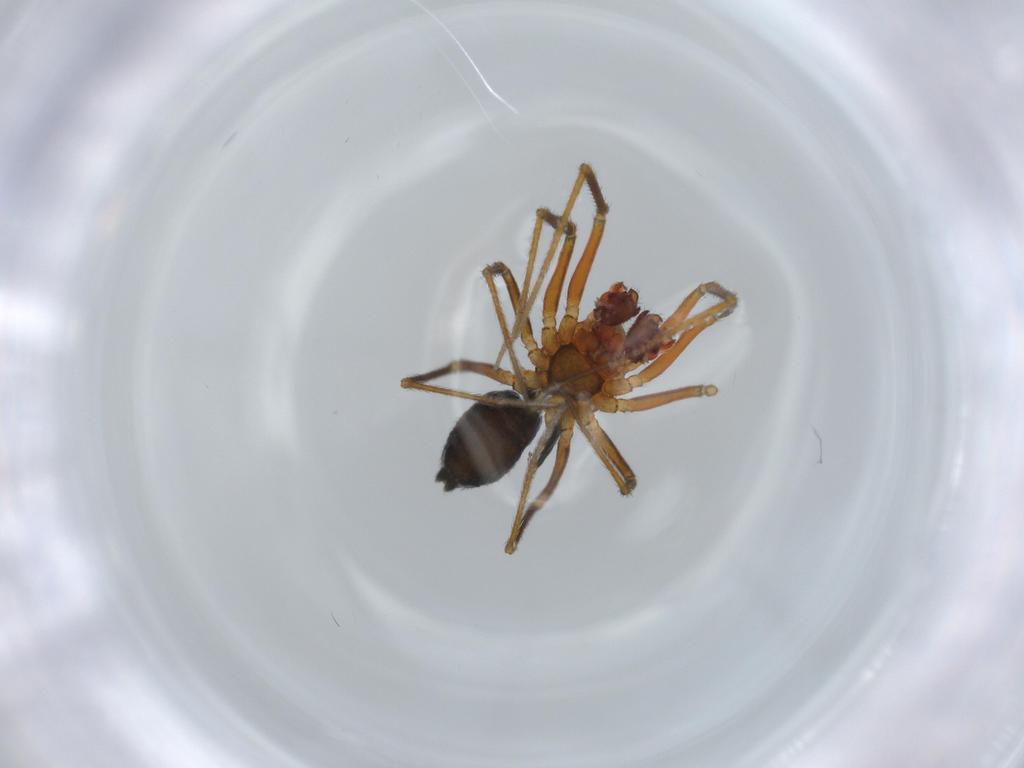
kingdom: Animalia
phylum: Arthropoda
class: Arachnida
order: Araneae
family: Linyphiidae
